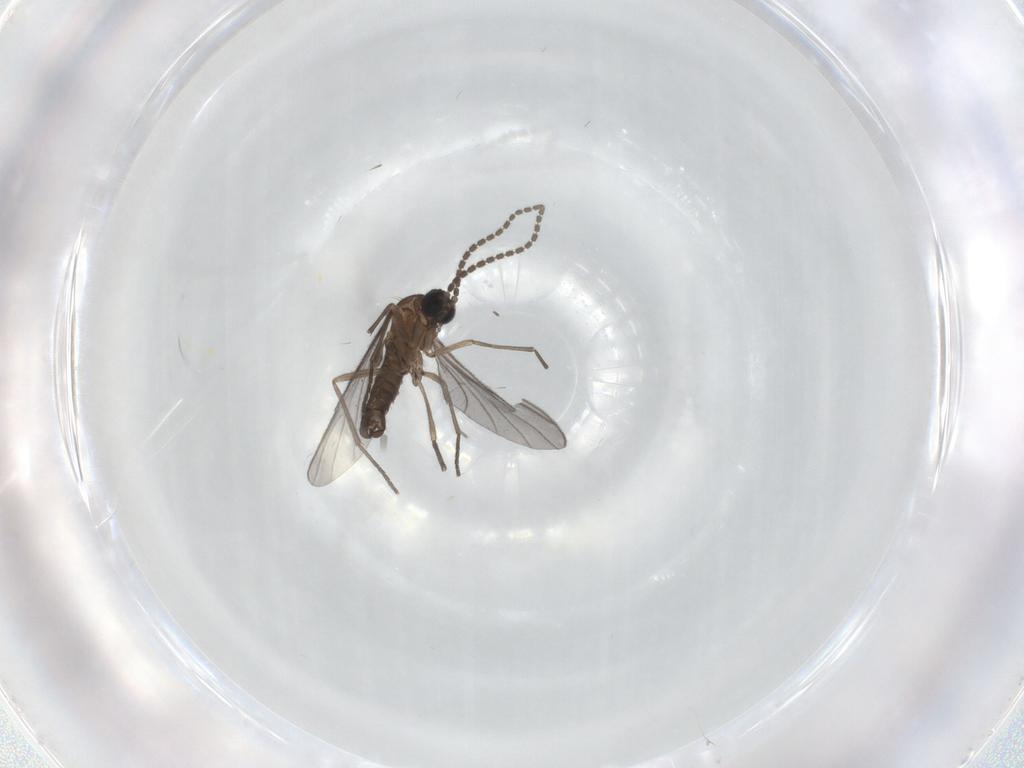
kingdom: Animalia
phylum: Arthropoda
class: Insecta
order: Diptera
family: Sciaridae
